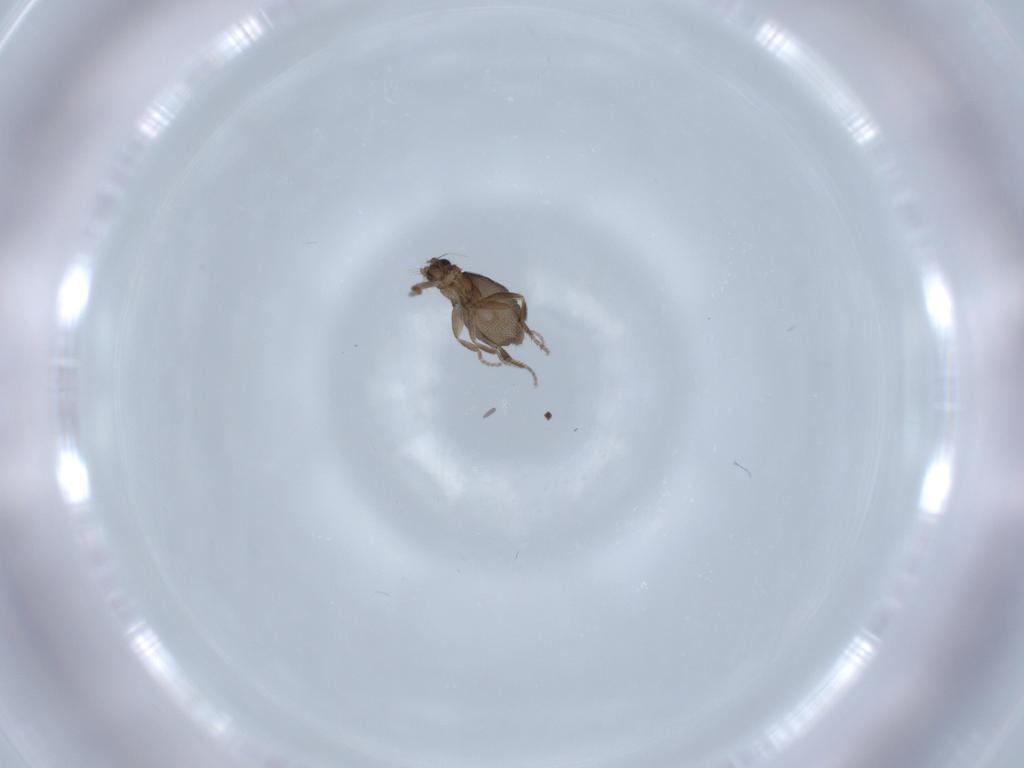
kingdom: Animalia
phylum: Arthropoda
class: Insecta
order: Diptera
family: Phoridae
